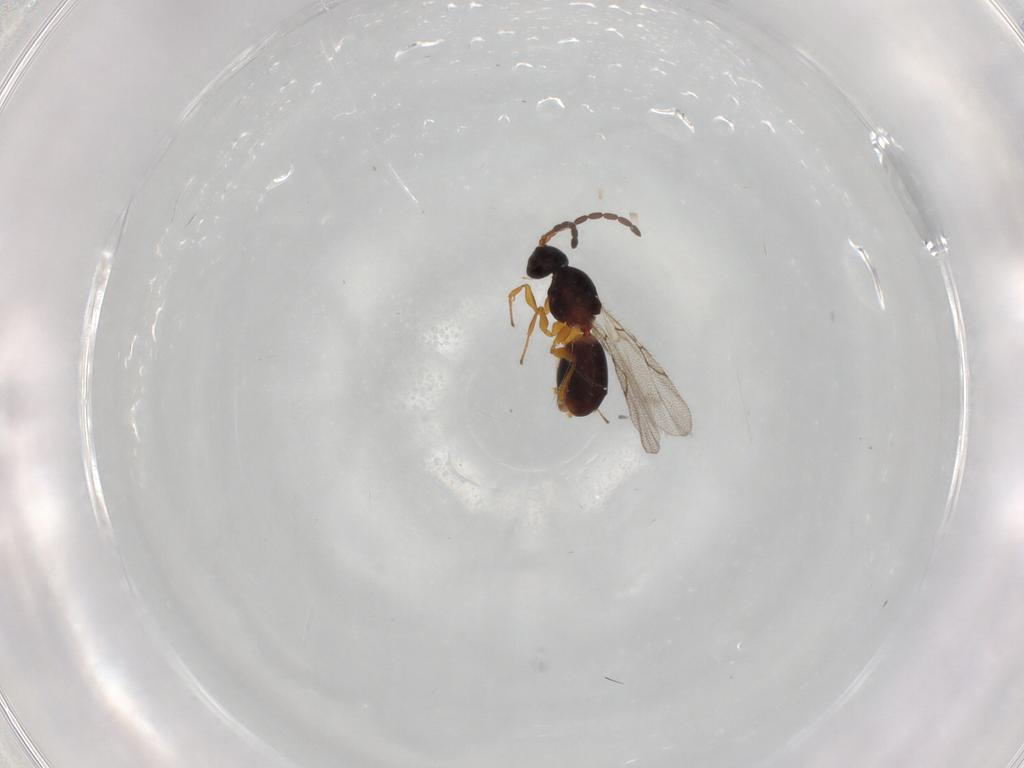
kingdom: Animalia
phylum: Arthropoda
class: Insecta
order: Hymenoptera
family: Figitidae
